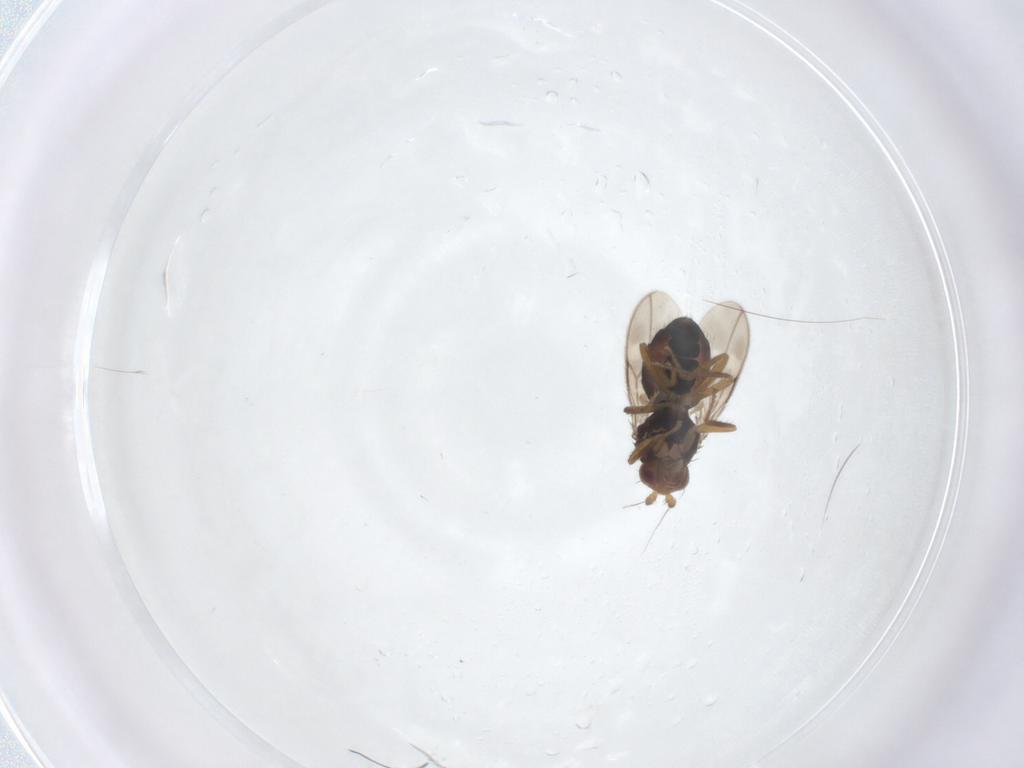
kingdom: Animalia
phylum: Arthropoda
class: Insecta
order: Diptera
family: Sphaeroceridae
